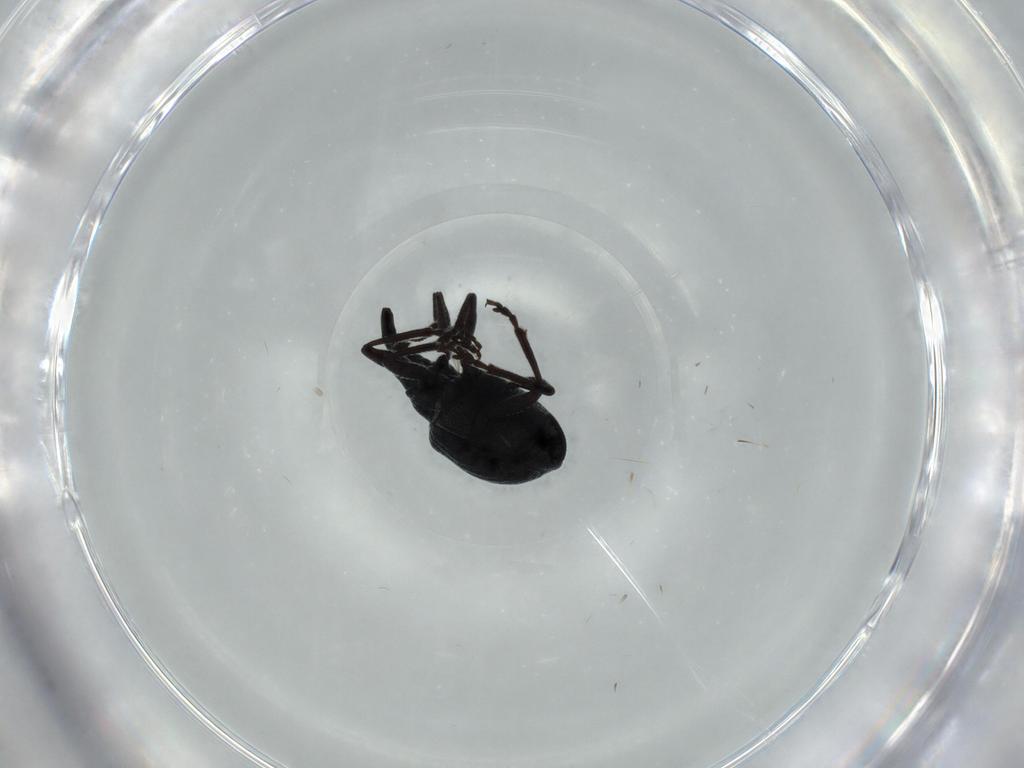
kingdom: Animalia
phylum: Arthropoda
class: Insecta
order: Coleoptera
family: Brentidae
